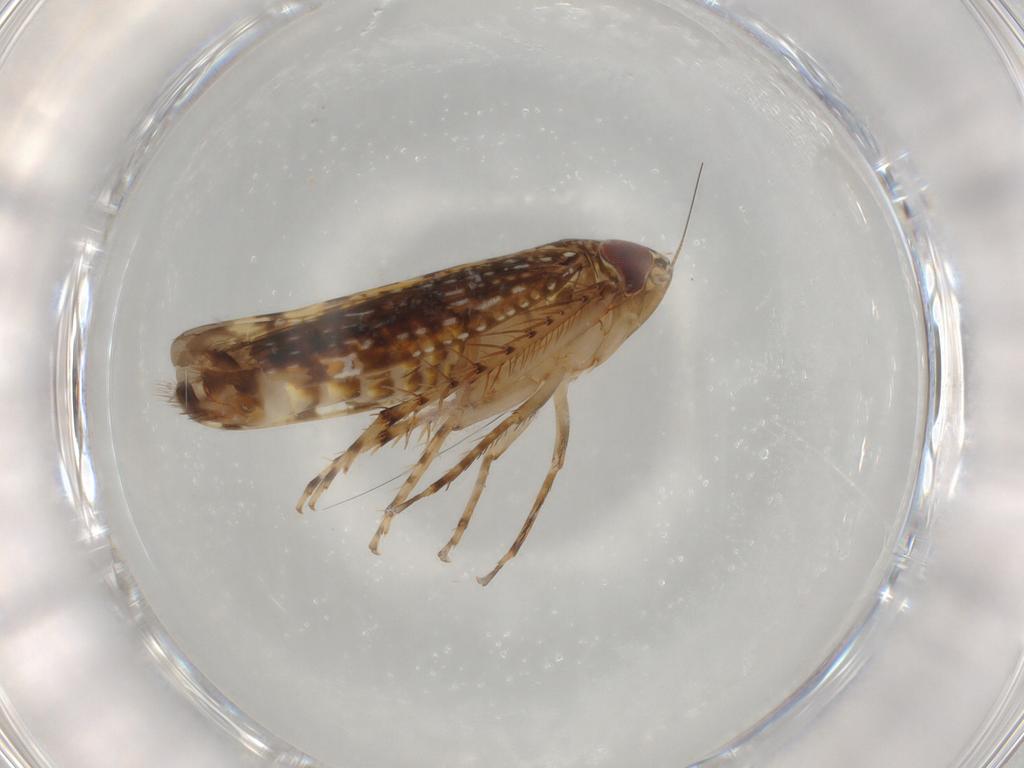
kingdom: Animalia
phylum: Arthropoda
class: Insecta
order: Hemiptera
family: Cicadellidae
